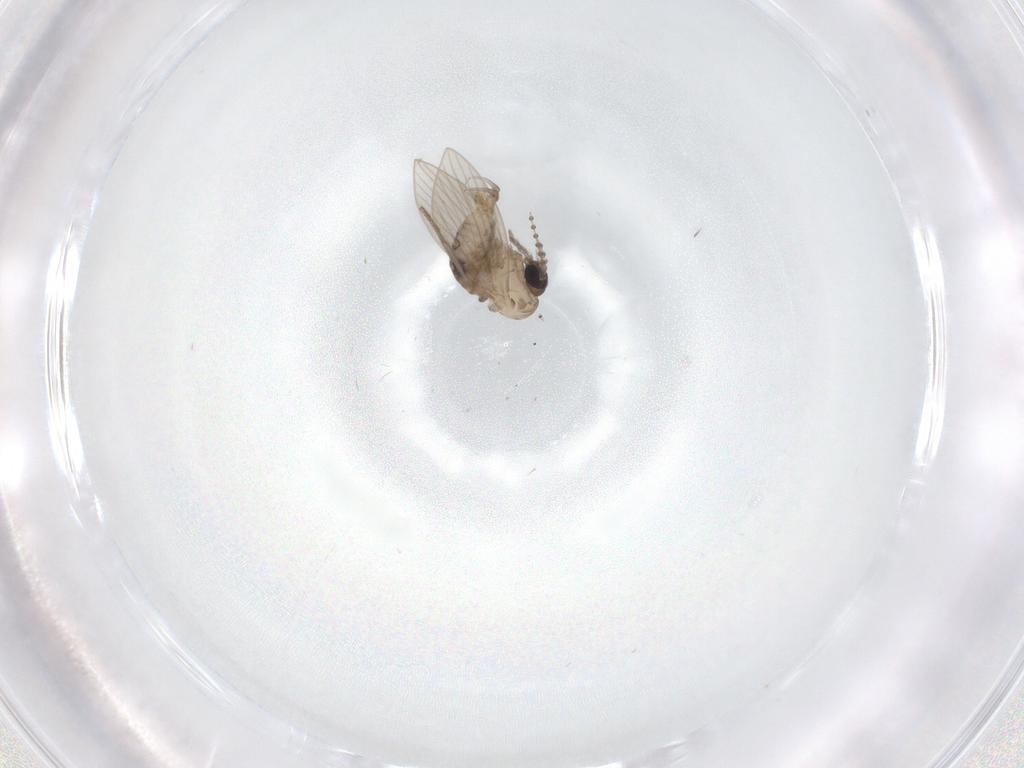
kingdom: Animalia
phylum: Arthropoda
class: Insecta
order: Diptera
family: Psychodidae
